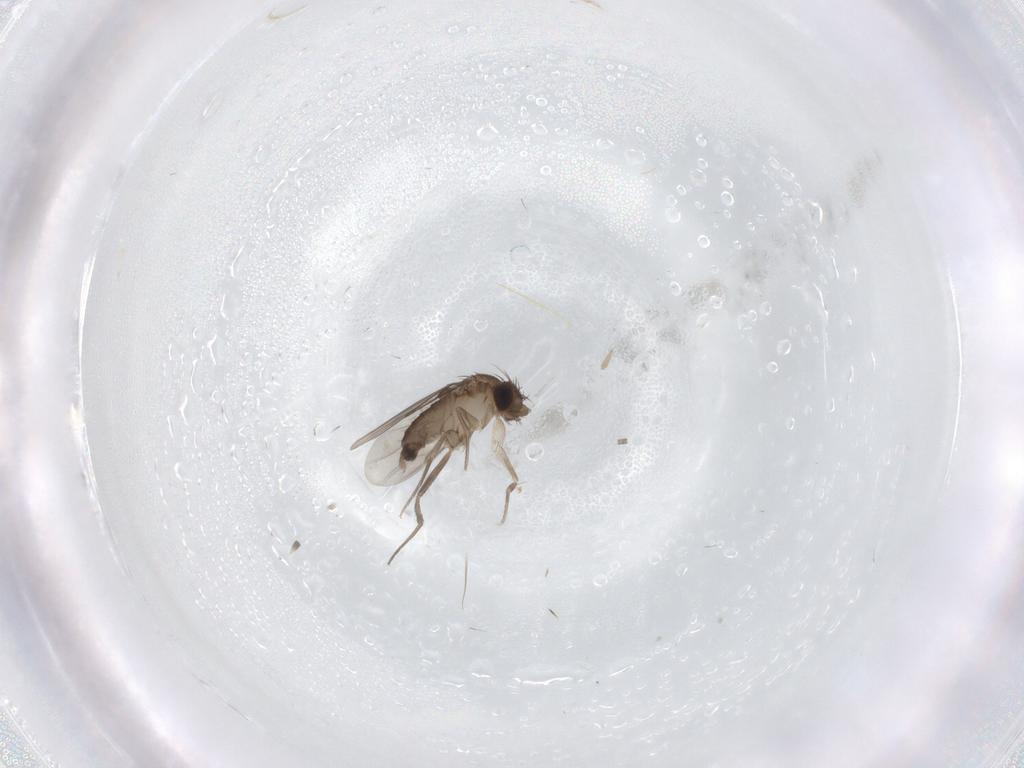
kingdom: Animalia
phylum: Arthropoda
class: Insecta
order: Diptera
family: Phoridae
